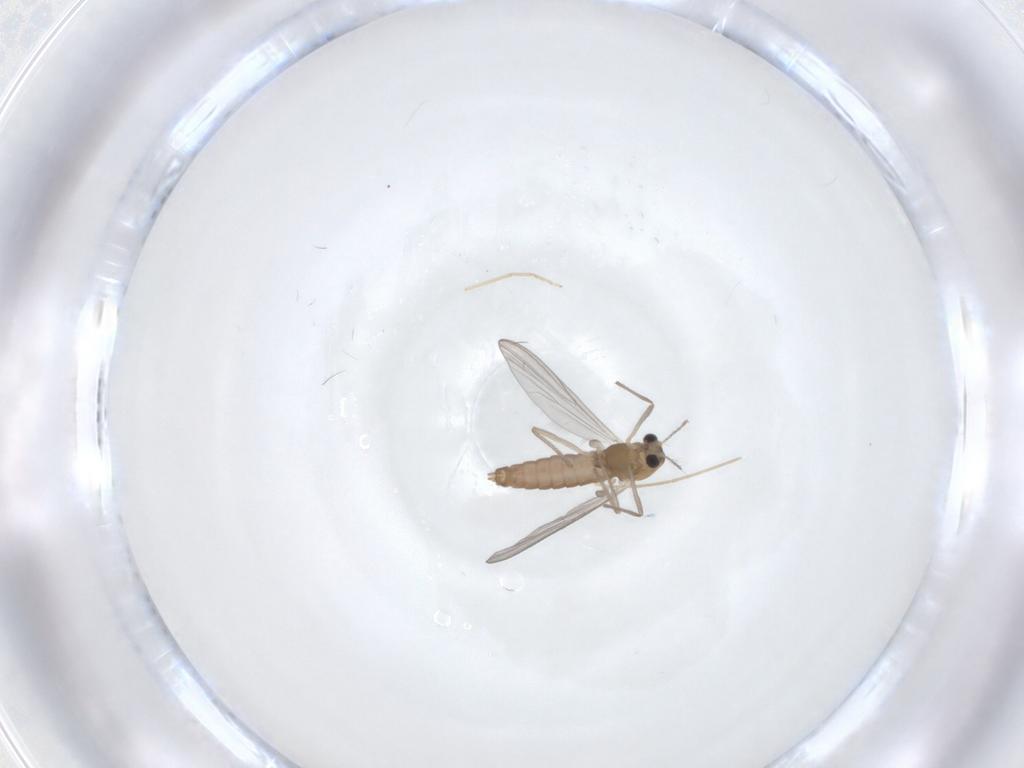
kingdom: Animalia
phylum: Arthropoda
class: Insecta
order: Diptera
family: Chironomidae
